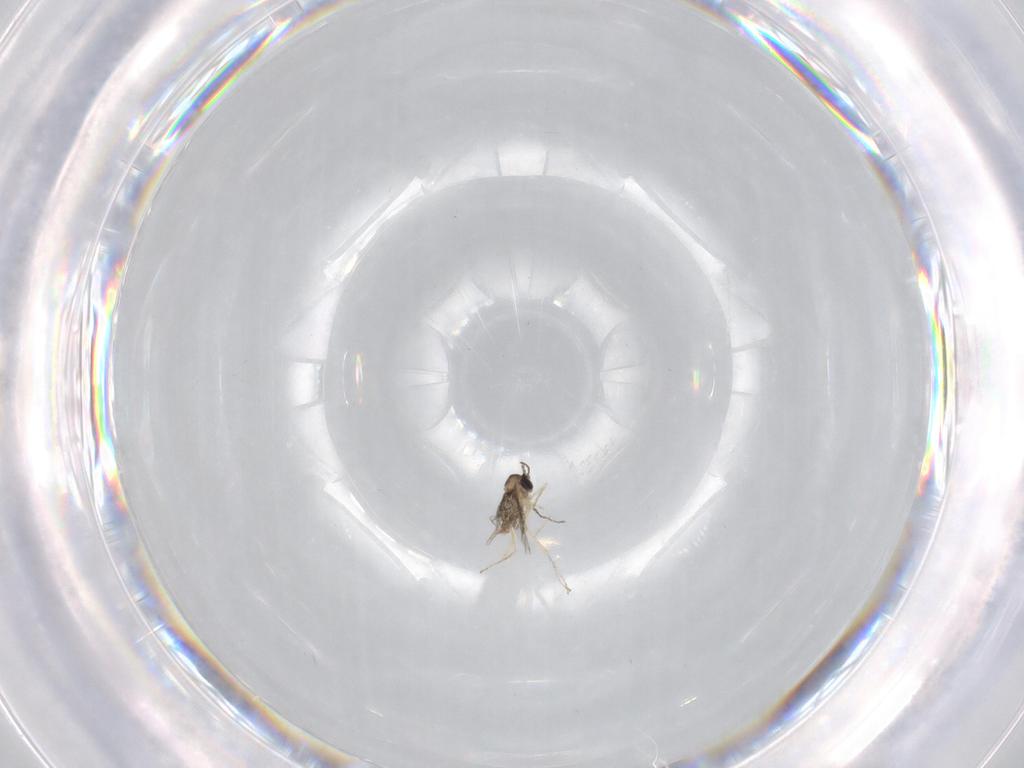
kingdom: Animalia
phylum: Arthropoda
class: Insecta
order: Diptera
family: Cecidomyiidae
